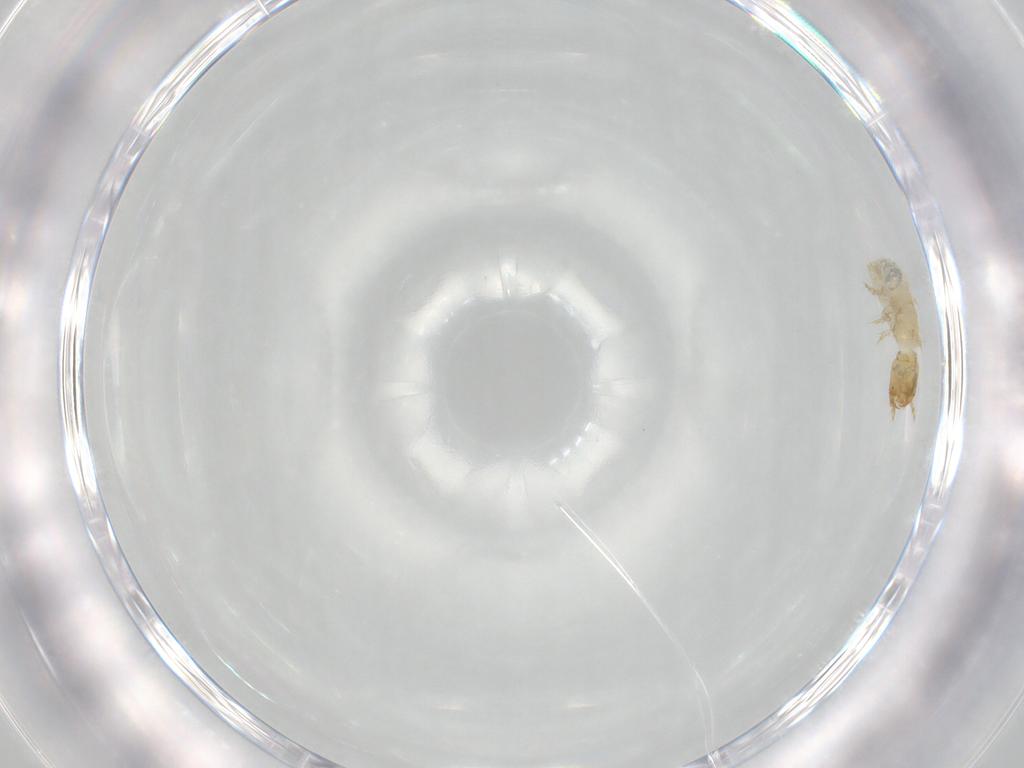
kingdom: Animalia
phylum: Arthropoda
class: Insecta
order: Coleoptera
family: Staphylinidae
